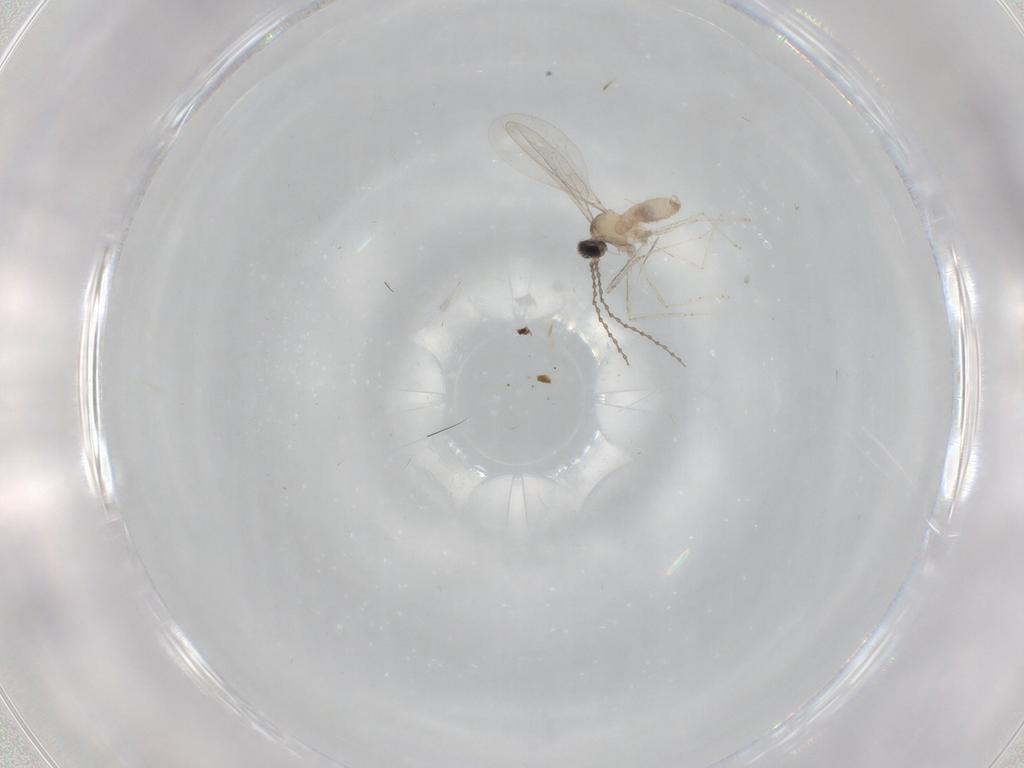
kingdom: Animalia
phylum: Arthropoda
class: Insecta
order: Diptera
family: Cecidomyiidae
